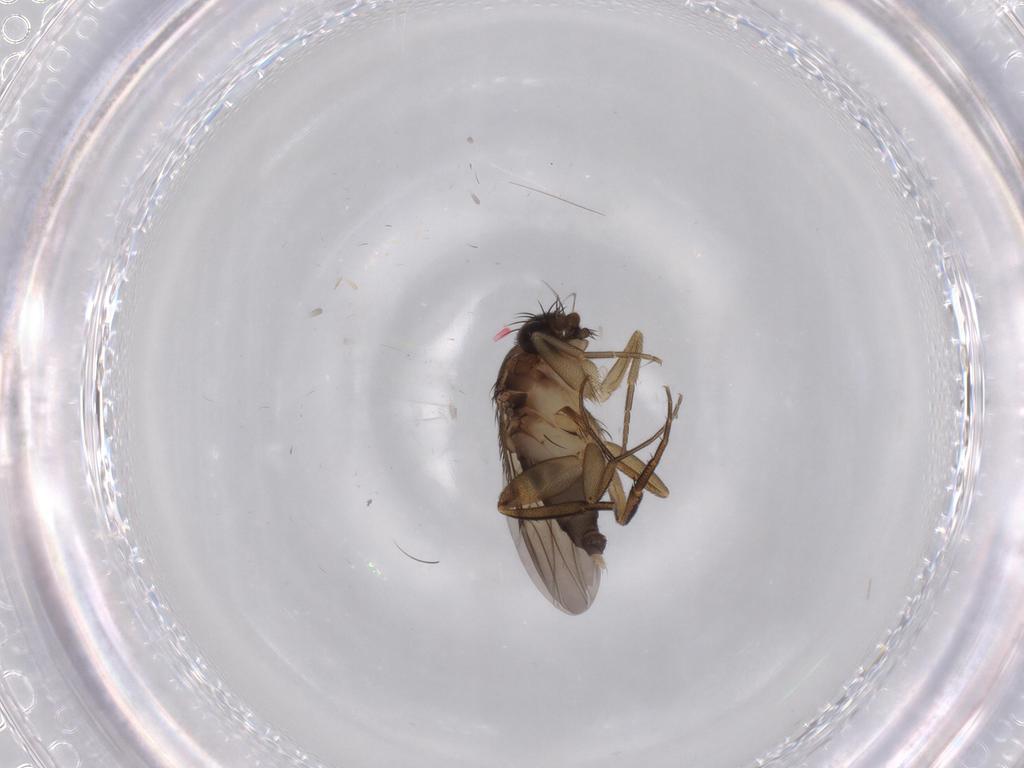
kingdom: Animalia
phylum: Arthropoda
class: Insecta
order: Diptera
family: Phoridae
